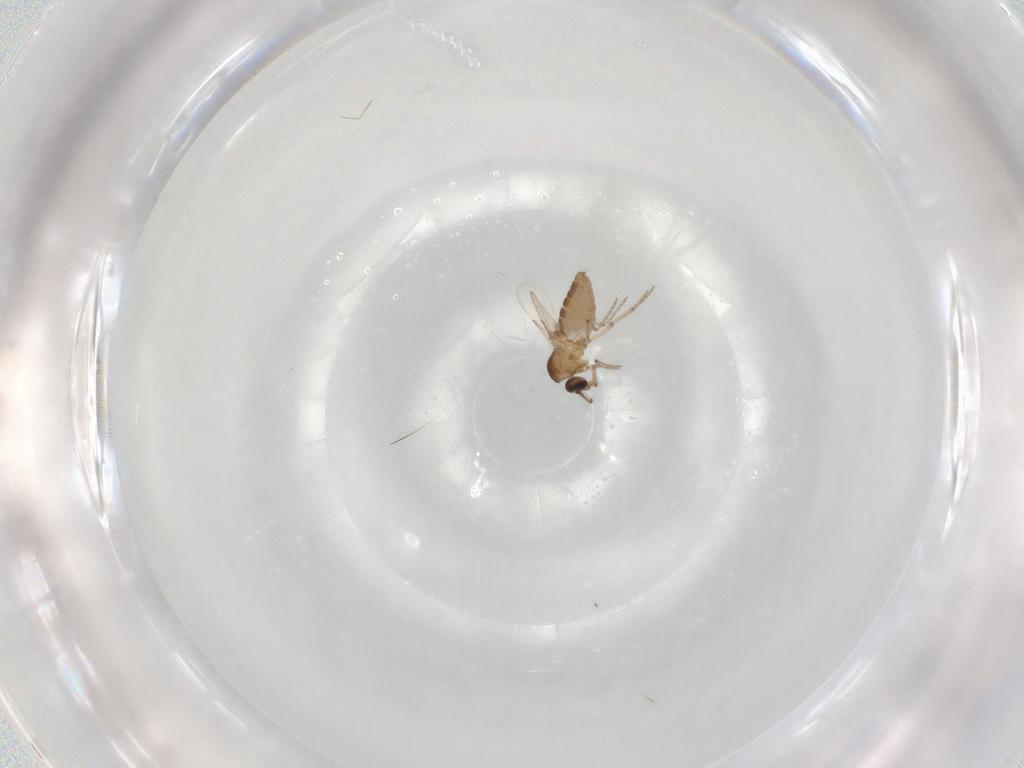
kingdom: Animalia
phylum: Arthropoda
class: Insecta
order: Diptera
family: Ceratopogonidae
